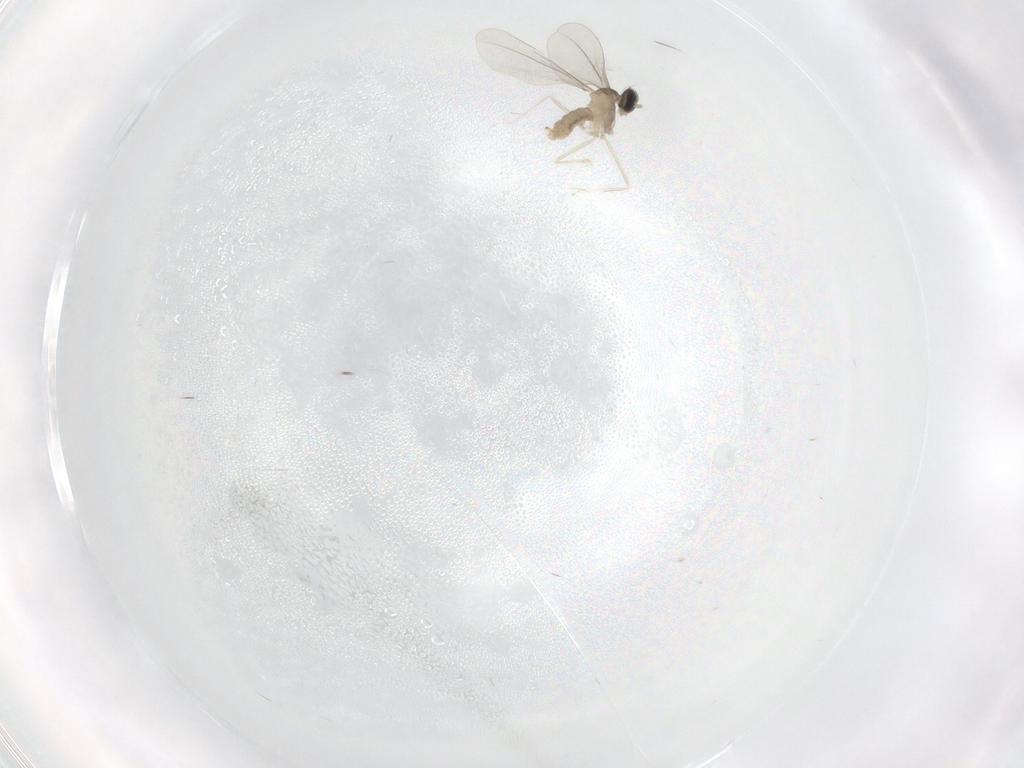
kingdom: Animalia
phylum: Arthropoda
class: Insecta
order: Diptera
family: Cecidomyiidae
